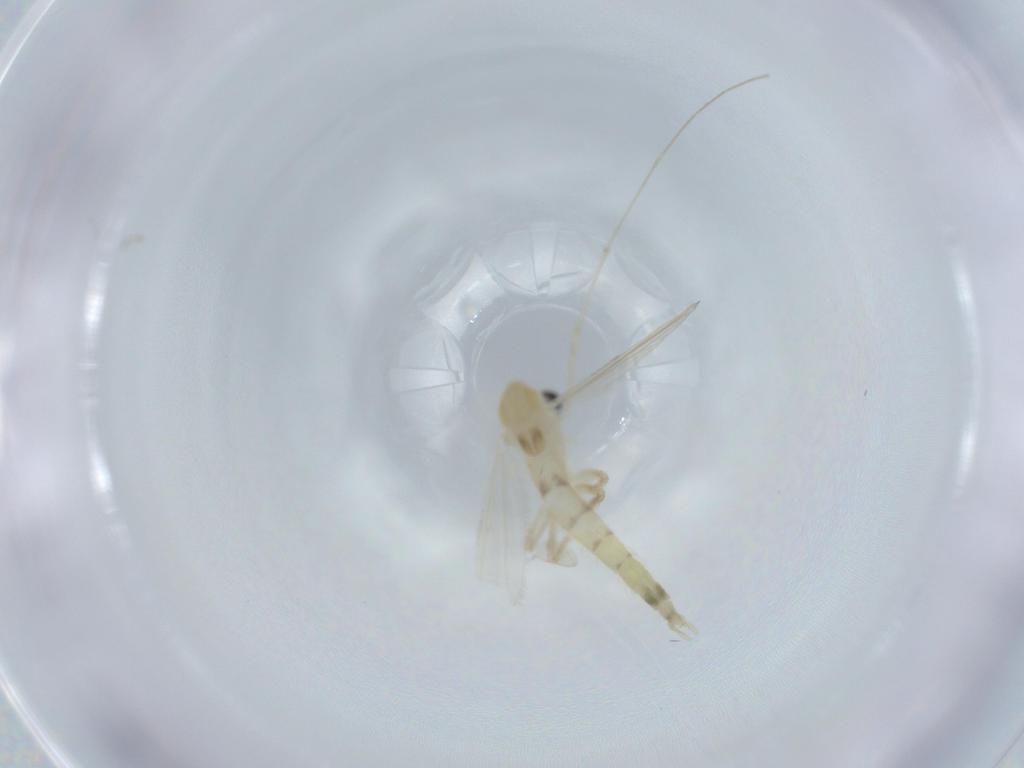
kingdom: Animalia
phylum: Arthropoda
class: Insecta
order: Diptera
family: Chironomidae
